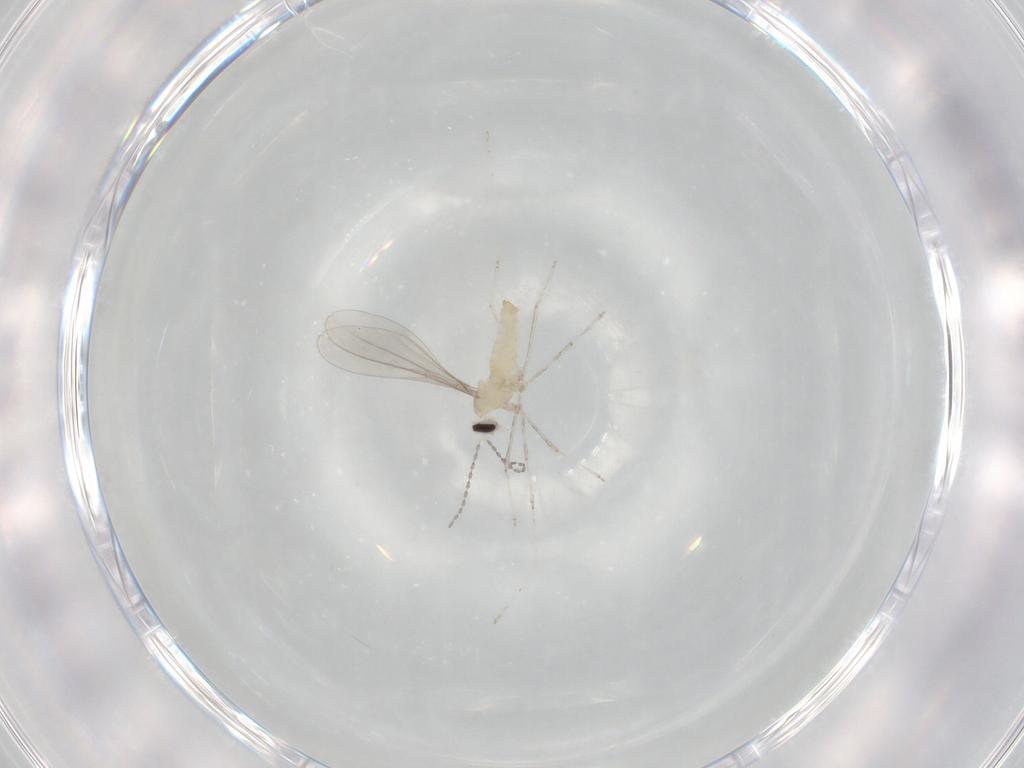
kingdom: Animalia
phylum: Arthropoda
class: Insecta
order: Diptera
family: Cecidomyiidae
